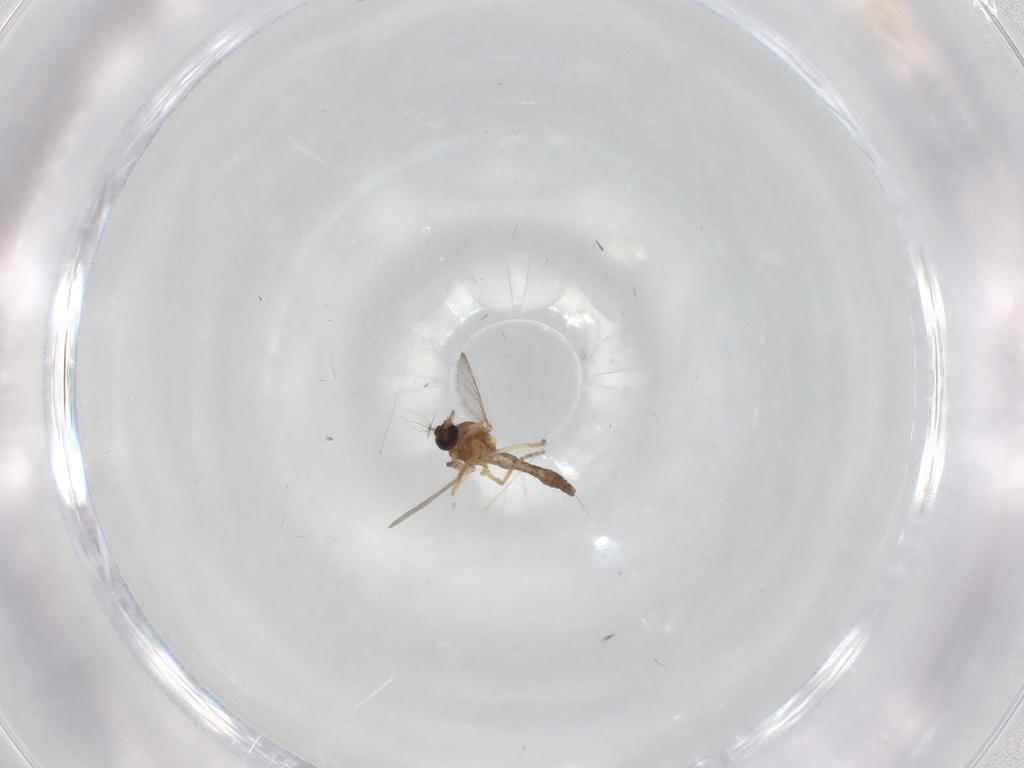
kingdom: Animalia
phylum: Arthropoda
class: Insecta
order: Diptera
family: Ceratopogonidae
